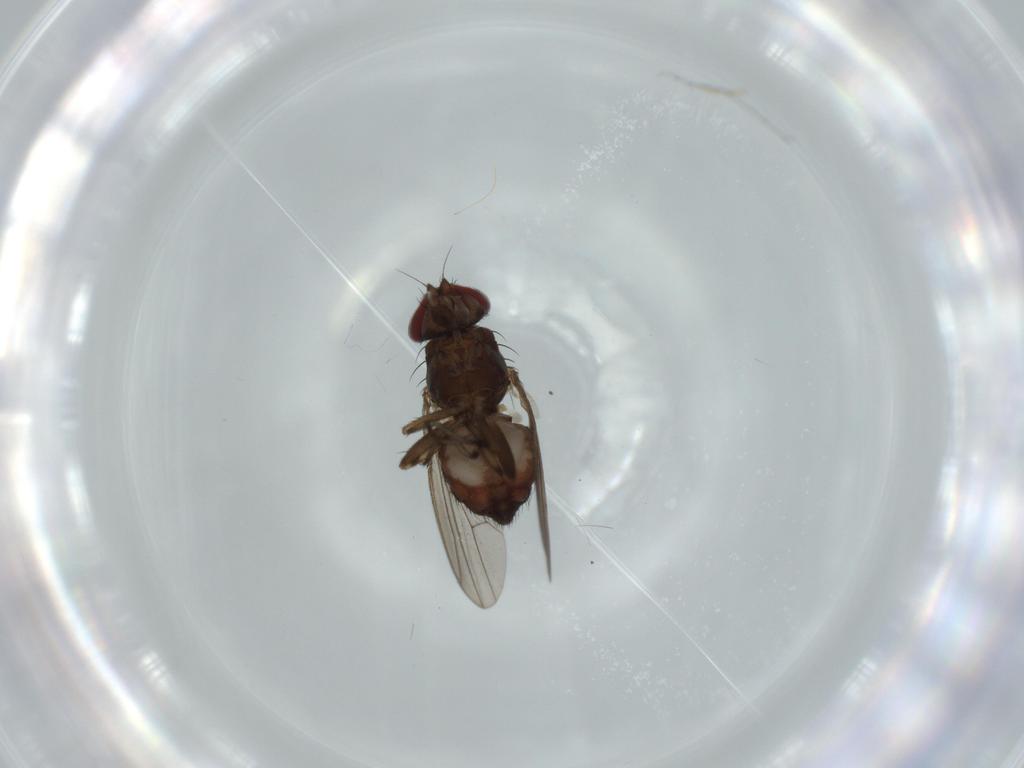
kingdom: Animalia
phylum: Arthropoda
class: Insecta
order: Diptera
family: Heleomyzidae
